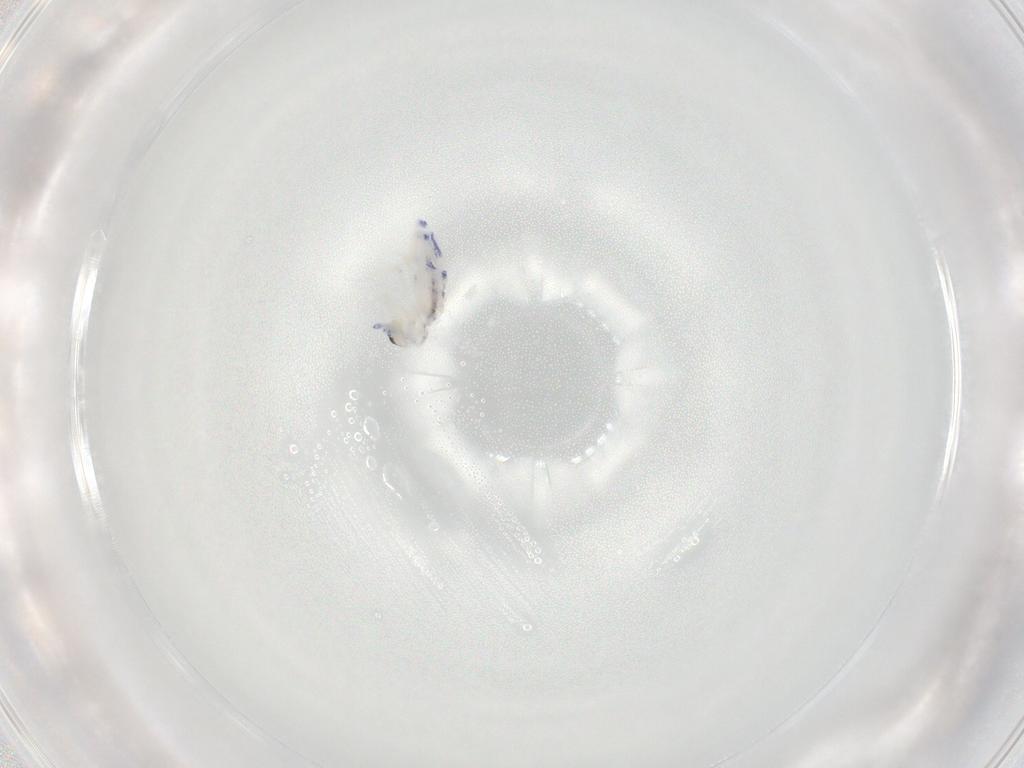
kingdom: Animalia
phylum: Arthropoda
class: Collembola
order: Entomobryomorpha
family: Entomobryidae
